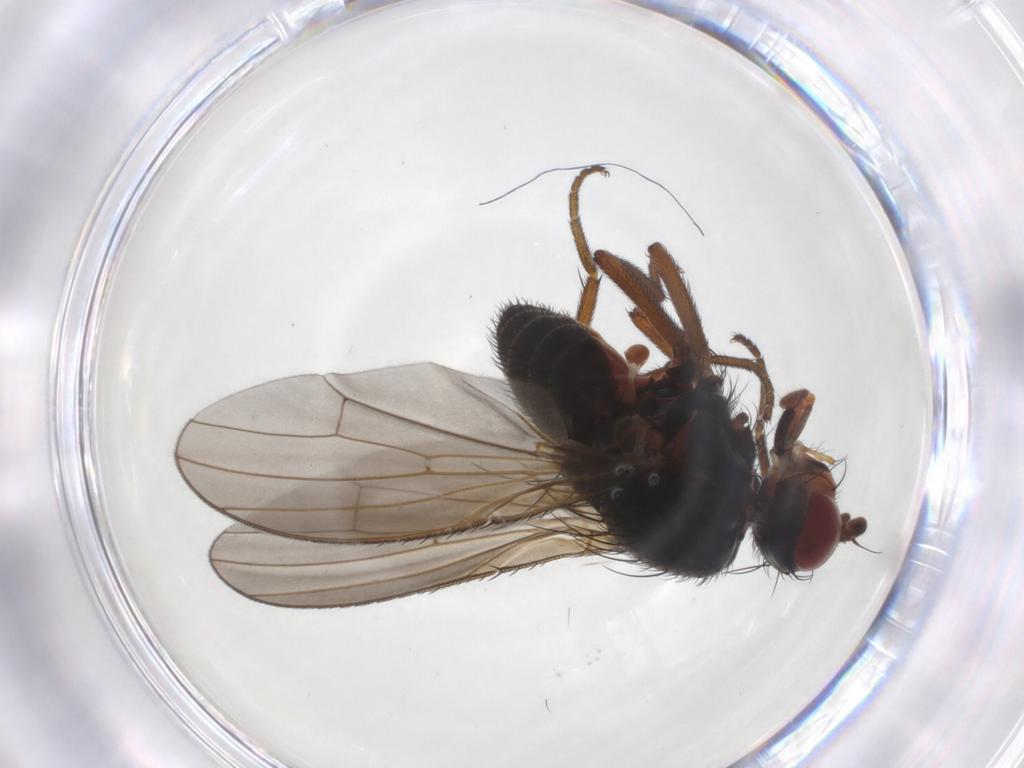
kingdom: Animalia
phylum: Arthropoda
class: Insecta
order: Diptera
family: Heleomyzidae
